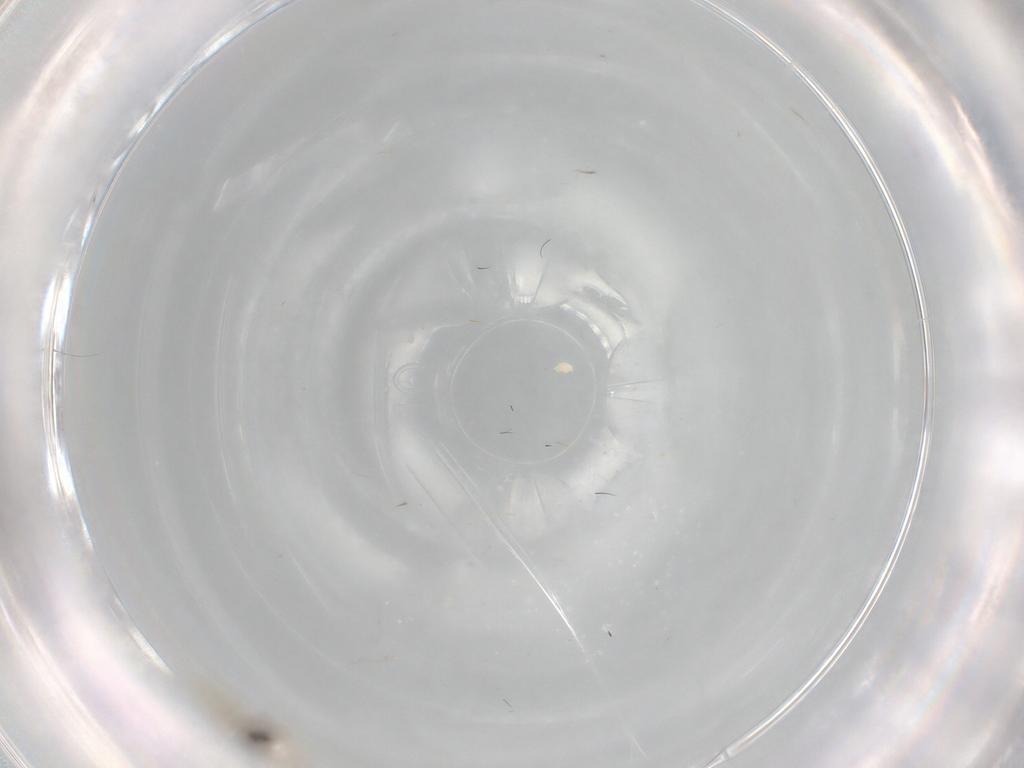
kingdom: Animalia
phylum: Arthropoda
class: Insecta
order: Diptera
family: Cecidomyiidae
